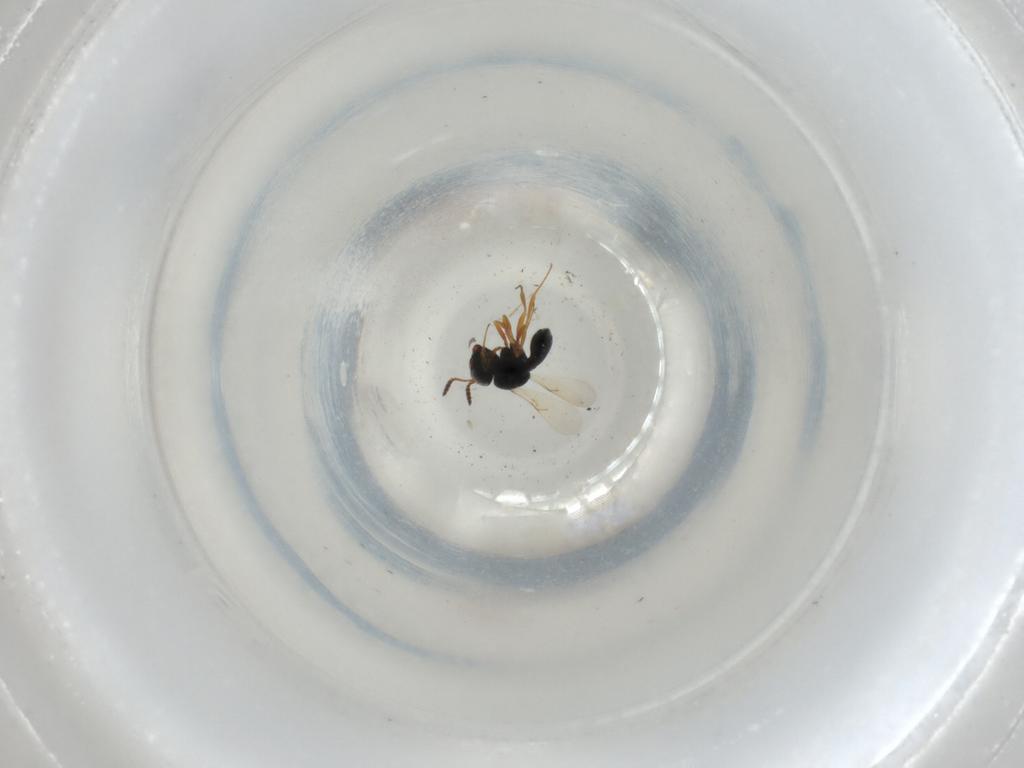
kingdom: Animalia
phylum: Arthropoda
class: Insecta
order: Hymenoptera
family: Scelionidae
